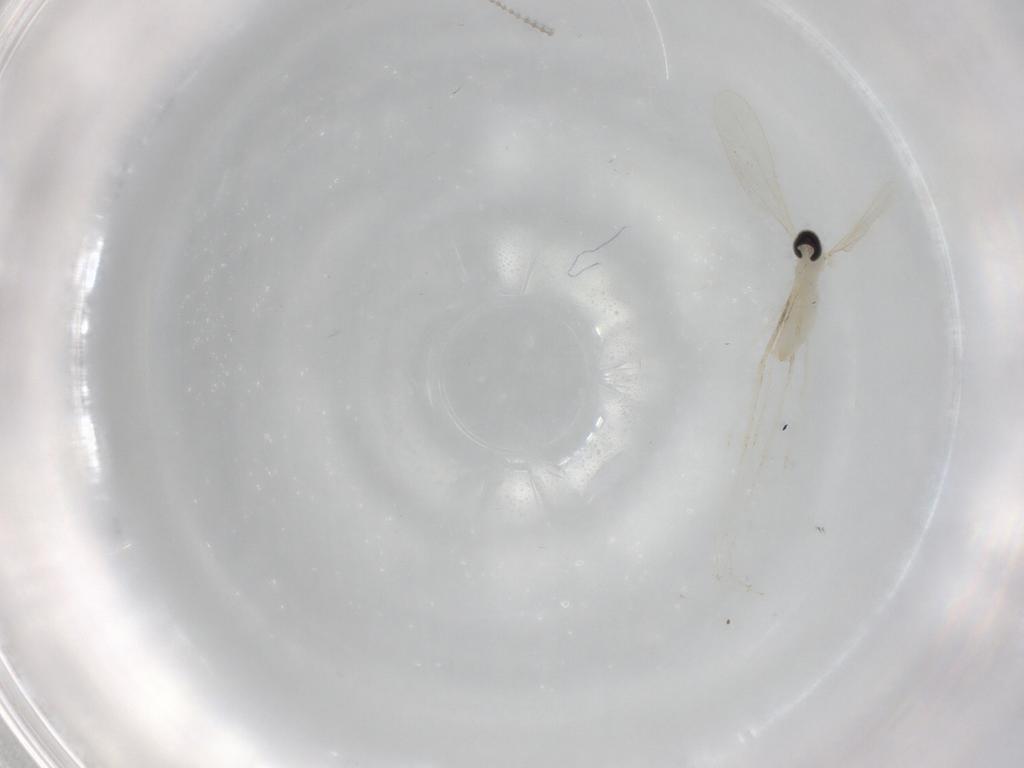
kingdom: Animalia
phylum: Arthropoda
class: Insecta
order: Diptera
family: Cecidomyiidae
